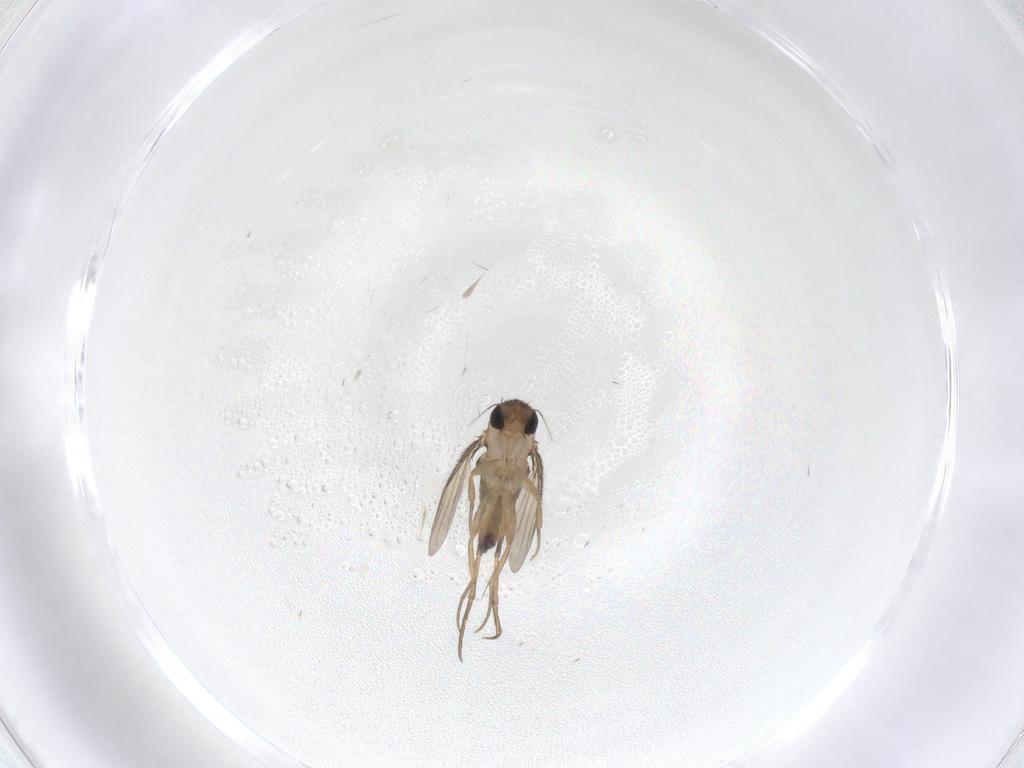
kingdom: Animalia
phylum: Arthropoda
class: Insecta
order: Diptera
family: Phoridae
